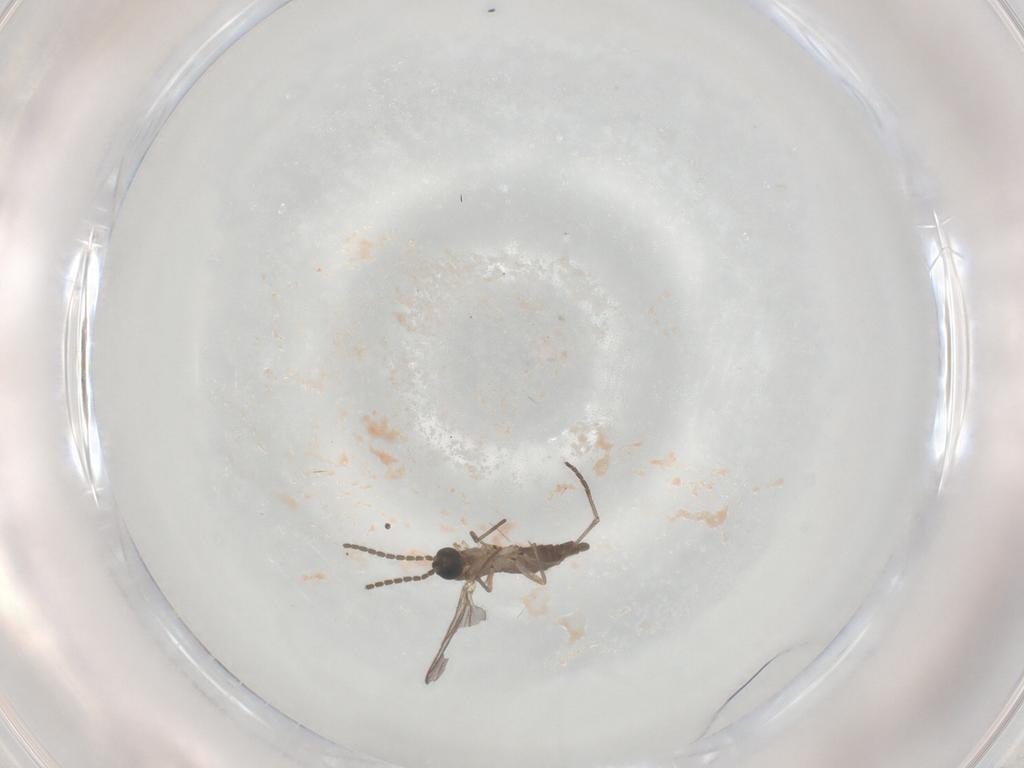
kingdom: Animalia
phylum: Arthropoda
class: Insecta
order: Diptera
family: Sciaridae
